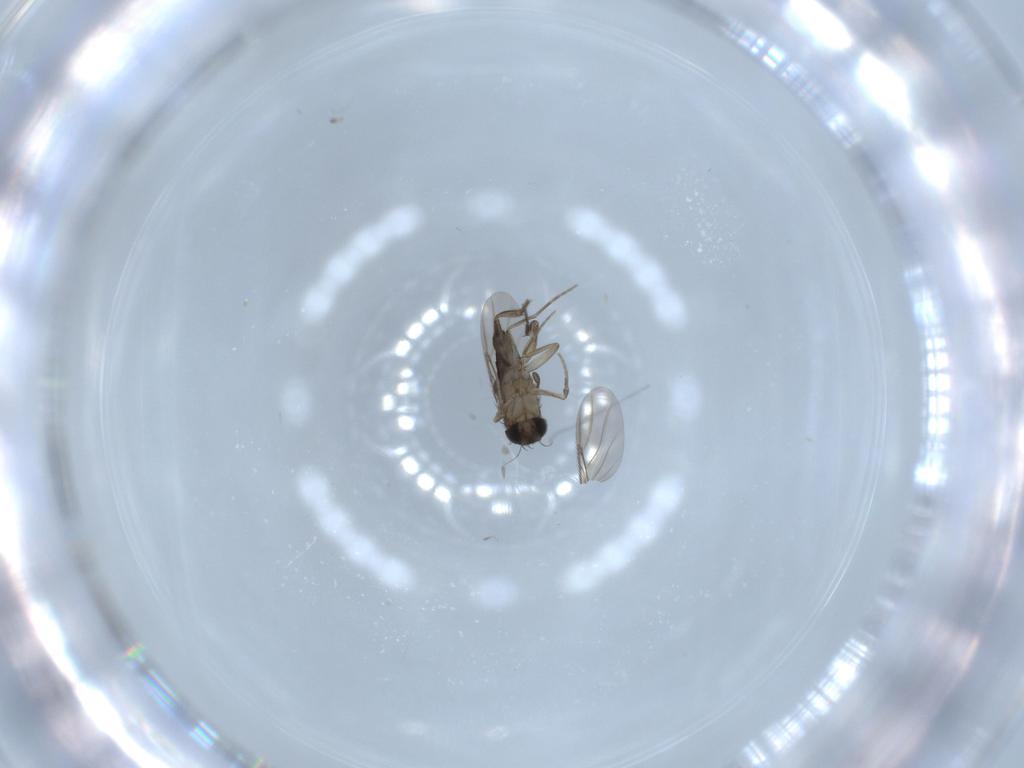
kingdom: Animalia
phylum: Arthropoda
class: Insecta
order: Diptera
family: Phoridae
